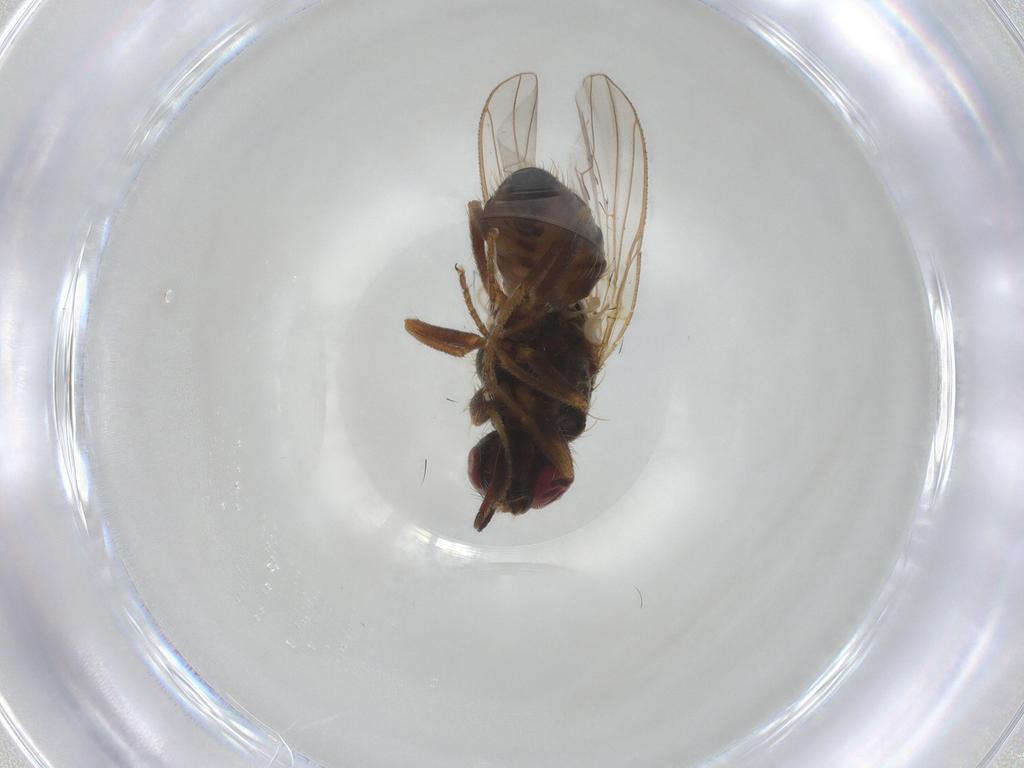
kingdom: Animalia
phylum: Arthropoda
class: Insecta
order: Diptera
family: Muscidae
